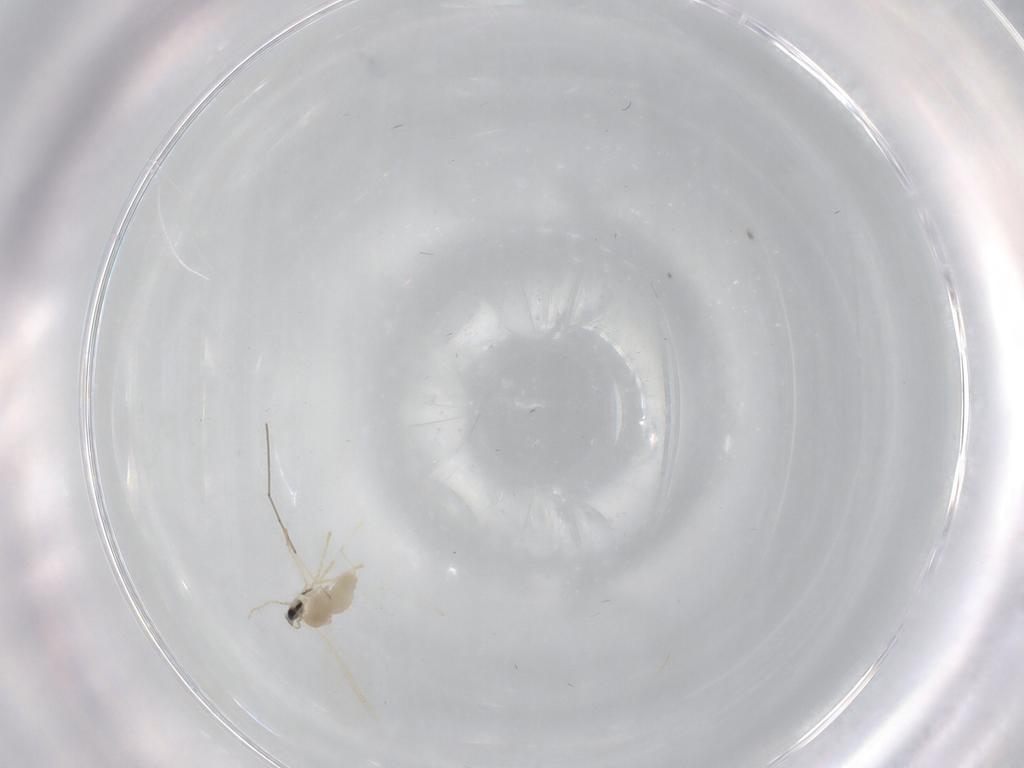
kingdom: Animalia
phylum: Arthropoda
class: Insecta
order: Diptera
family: Cecidomyiidae
